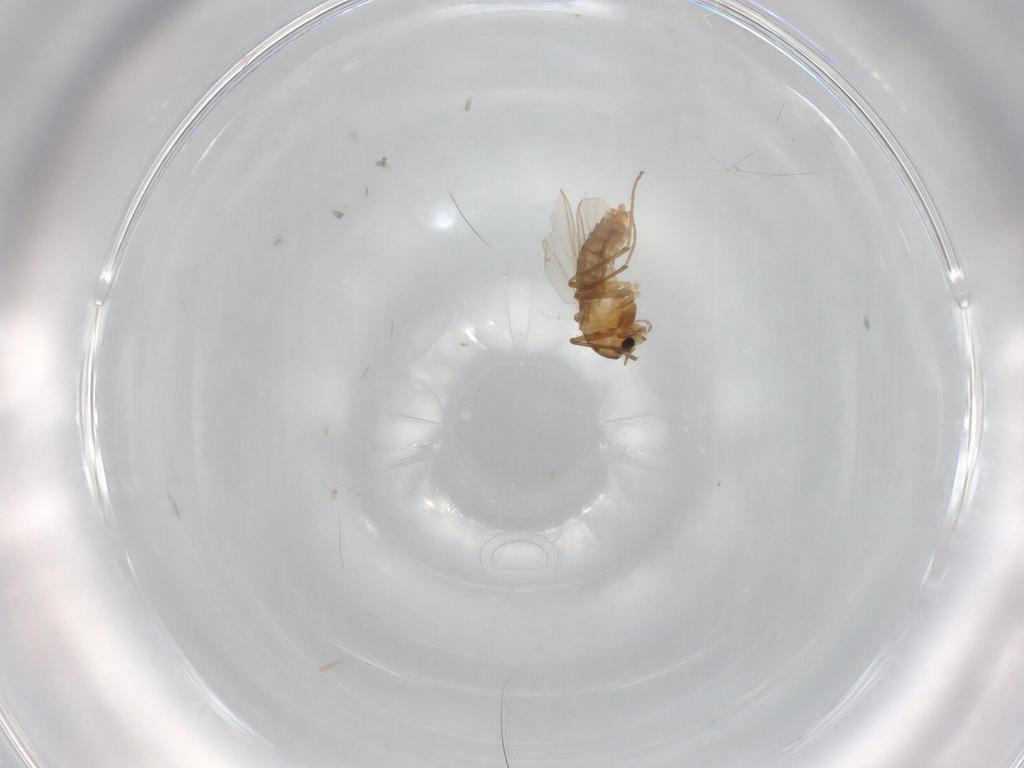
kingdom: Animalia
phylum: Arthropoda
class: Insecta
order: Diptera
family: Chironomidae
